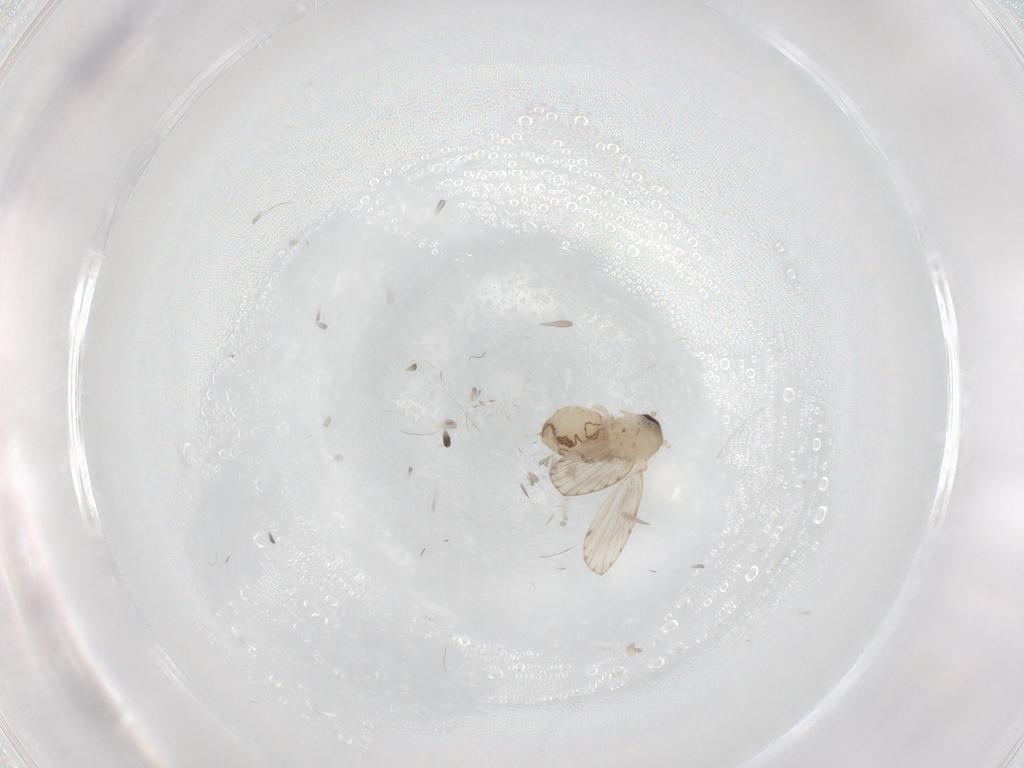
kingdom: Animalia
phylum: Arthropoda
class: Insecta
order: Diptera
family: Psychodidae
